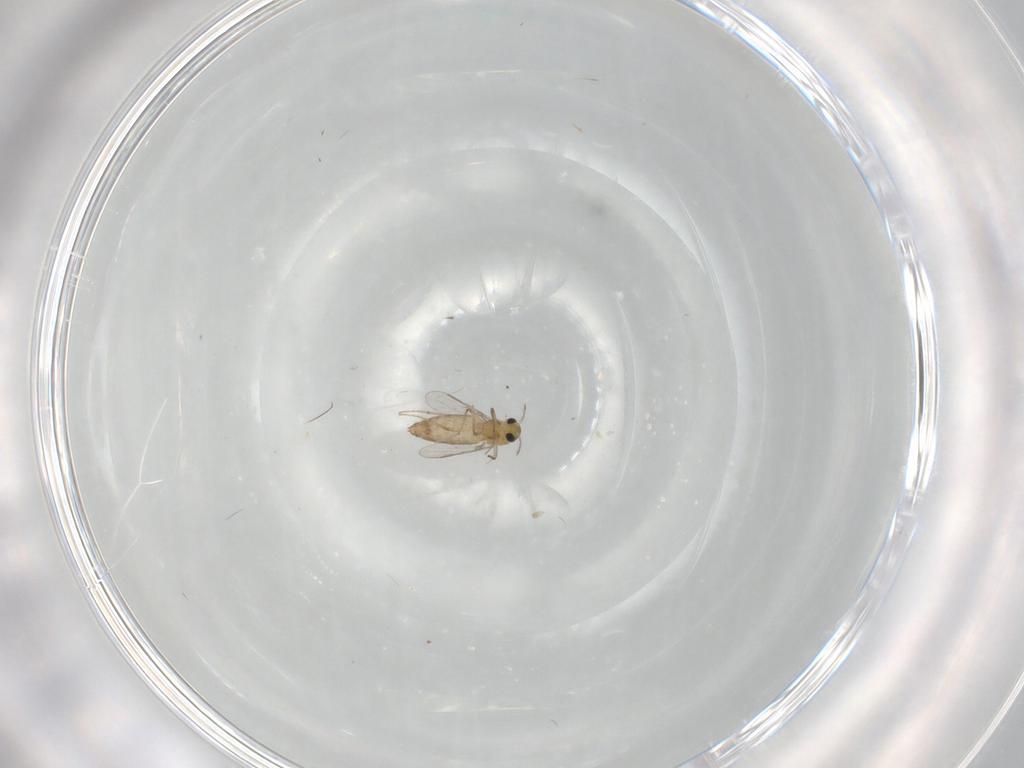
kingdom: Animalia
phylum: Arthropoda
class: Insecta
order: Diptera
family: Chironomidae
